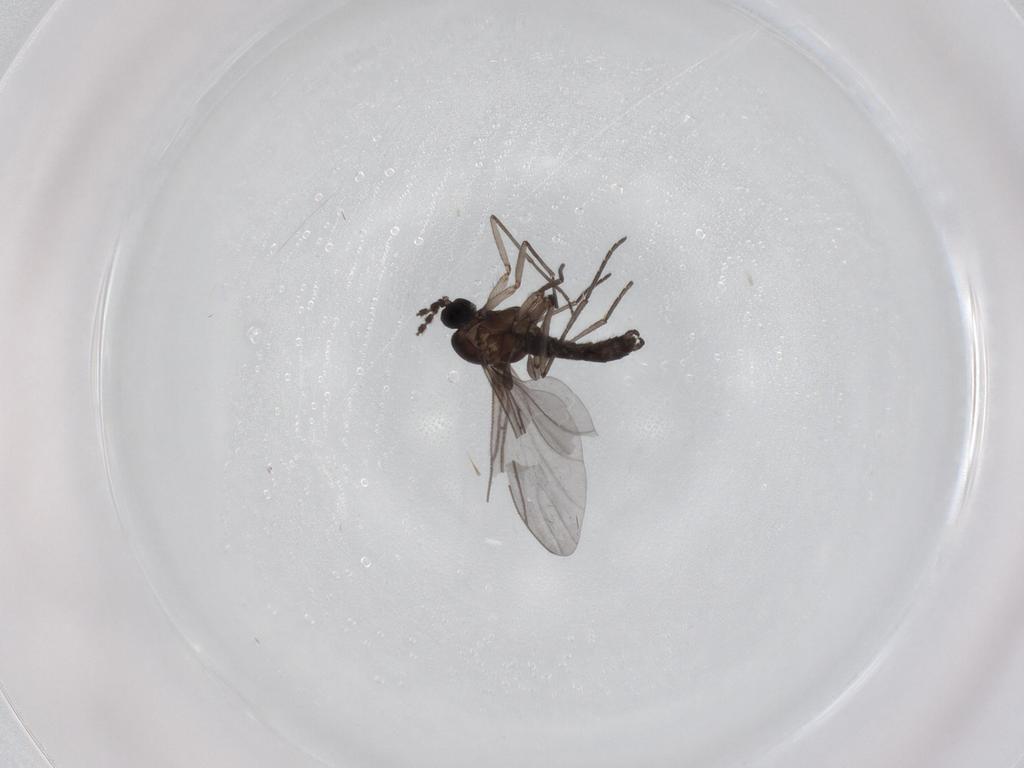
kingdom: Animalia
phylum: Arthropoda
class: Insecta
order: Diptera
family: Ceratopogonidae
